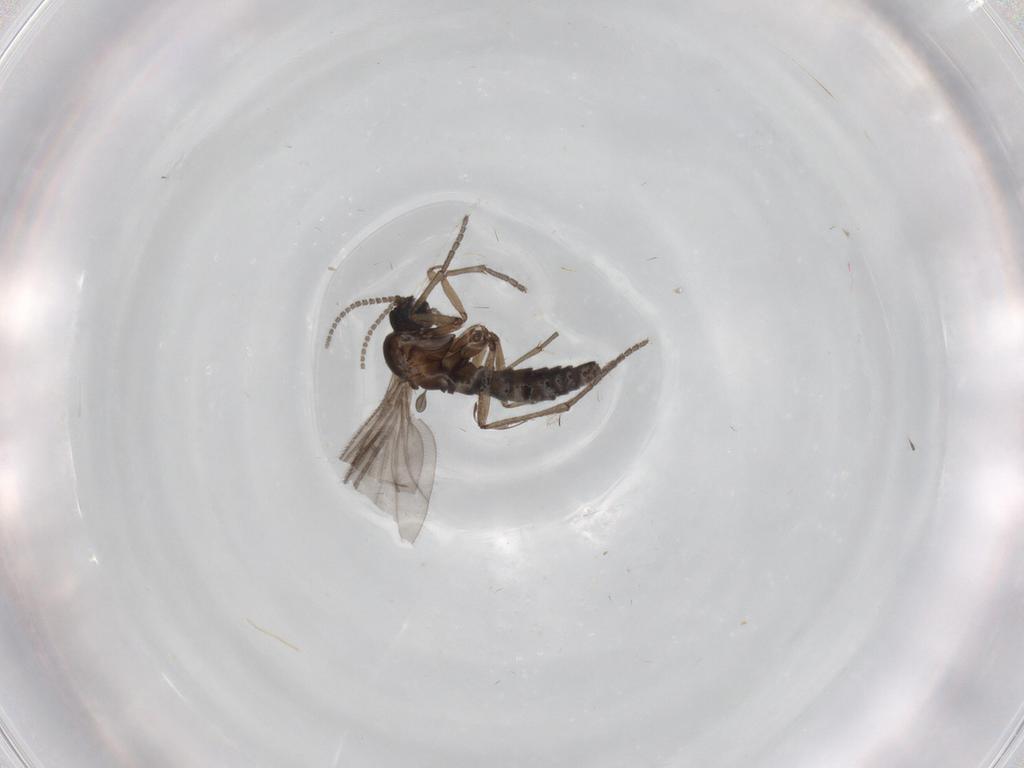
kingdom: Animalia
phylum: Arthropoda
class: Insecta
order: Diptera
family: Sciaridae
